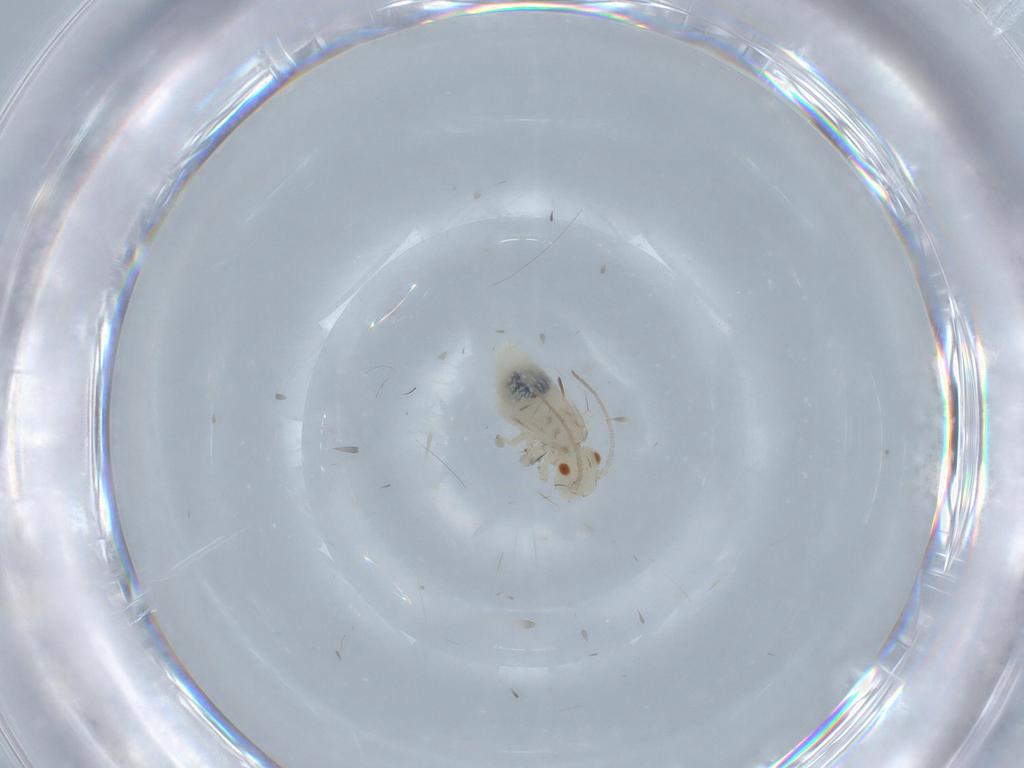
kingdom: Animalia
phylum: Arthropoda
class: Insecta
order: Psocodea
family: Caeciliusidae
